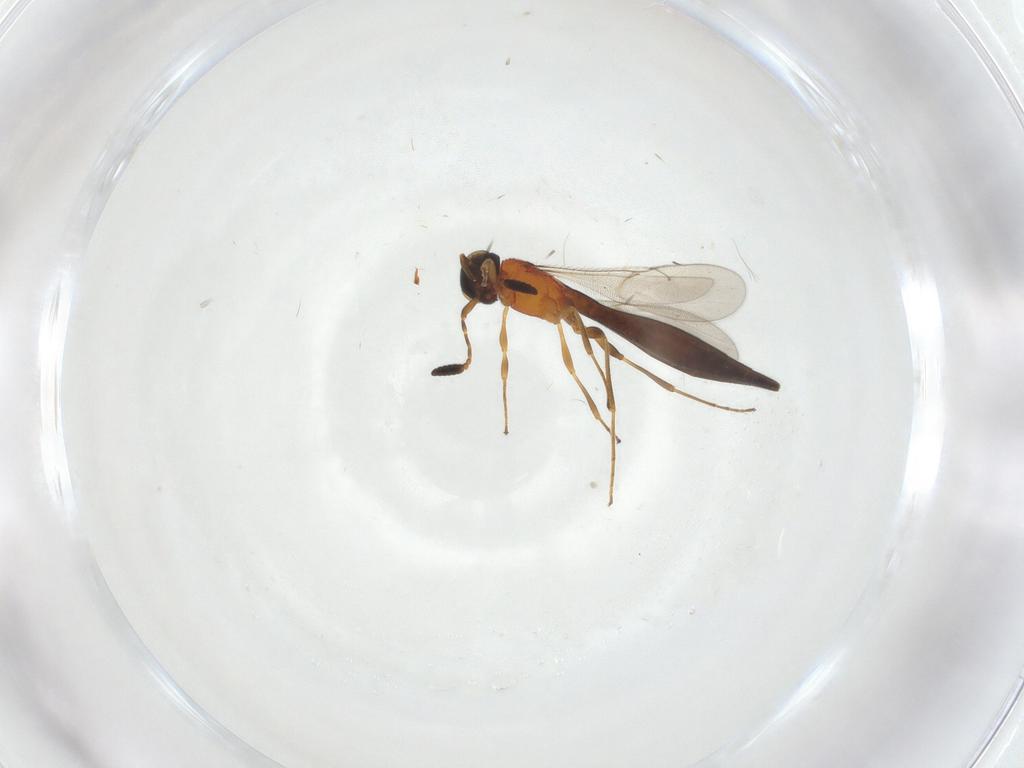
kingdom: Animalia
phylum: Arthropoda
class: Insecta
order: Hymenoptera
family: Scelionidae
